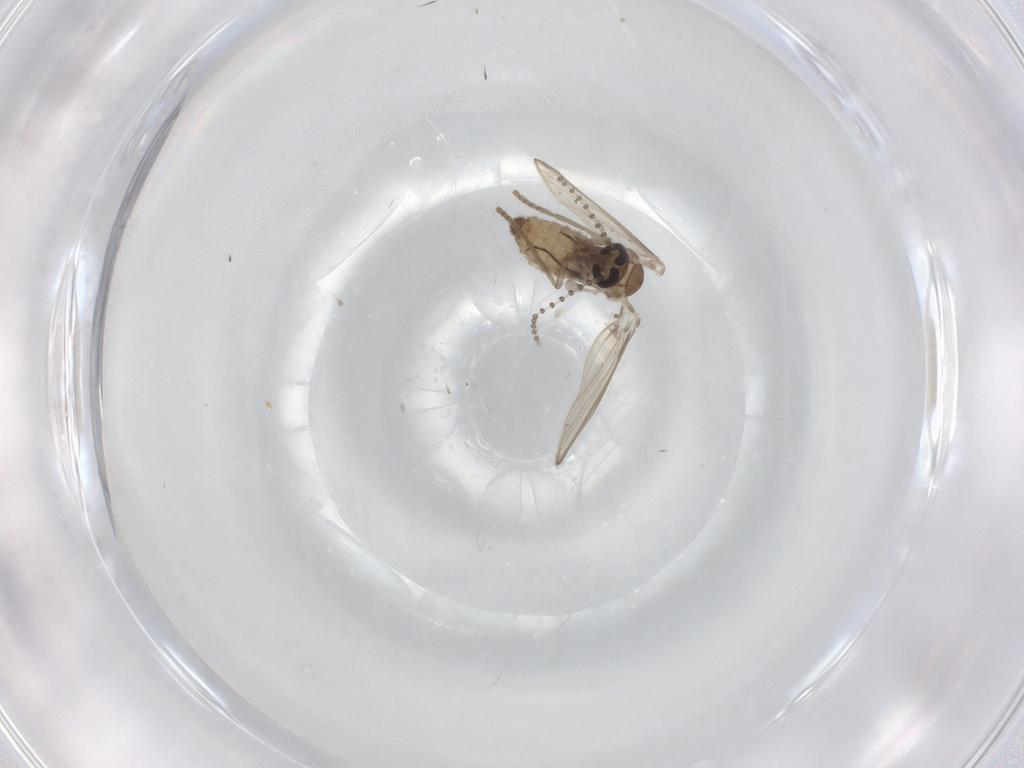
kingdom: Animalia
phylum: Arthropoda
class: Insecta
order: Diptera
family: Psychodidae
